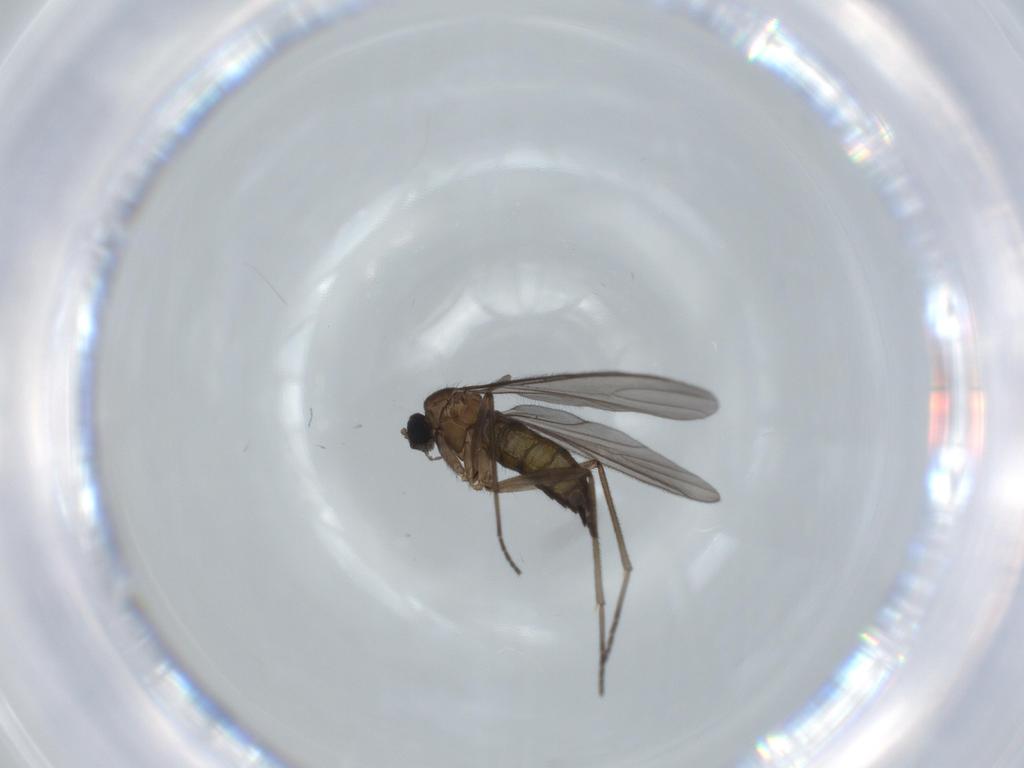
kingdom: Animalia
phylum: Arthropoda
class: Insecta
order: Diptera
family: Sciaridae
